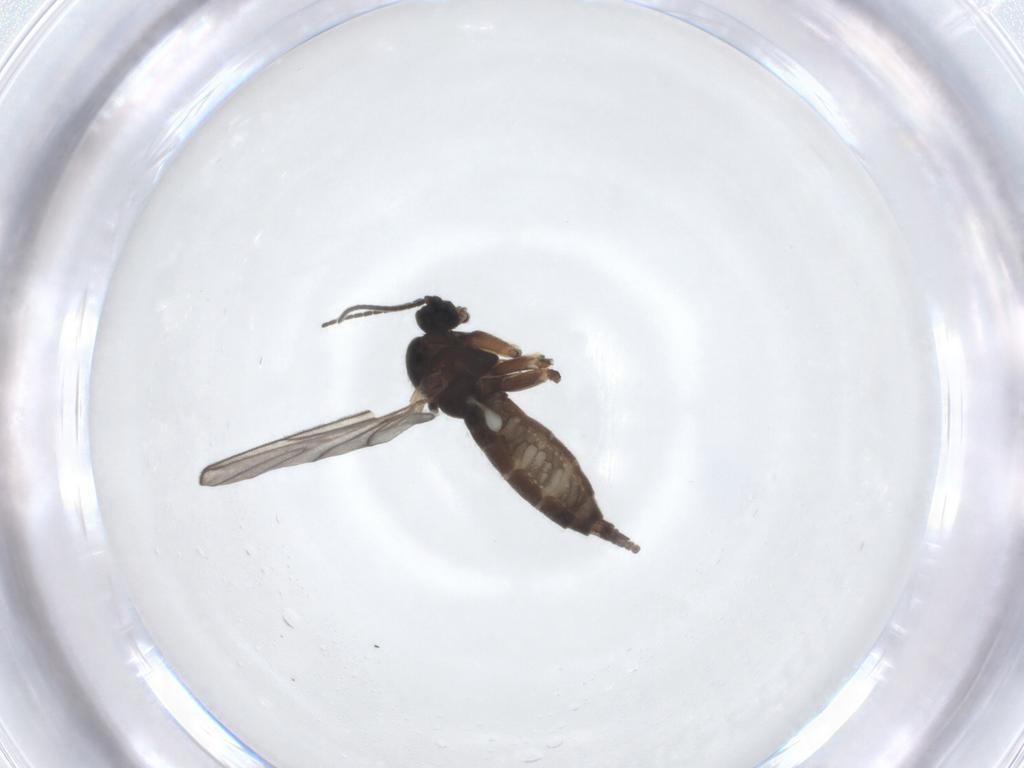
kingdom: Animalia
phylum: Arthropoda
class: Insecta
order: Diptera
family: Sciaridae
